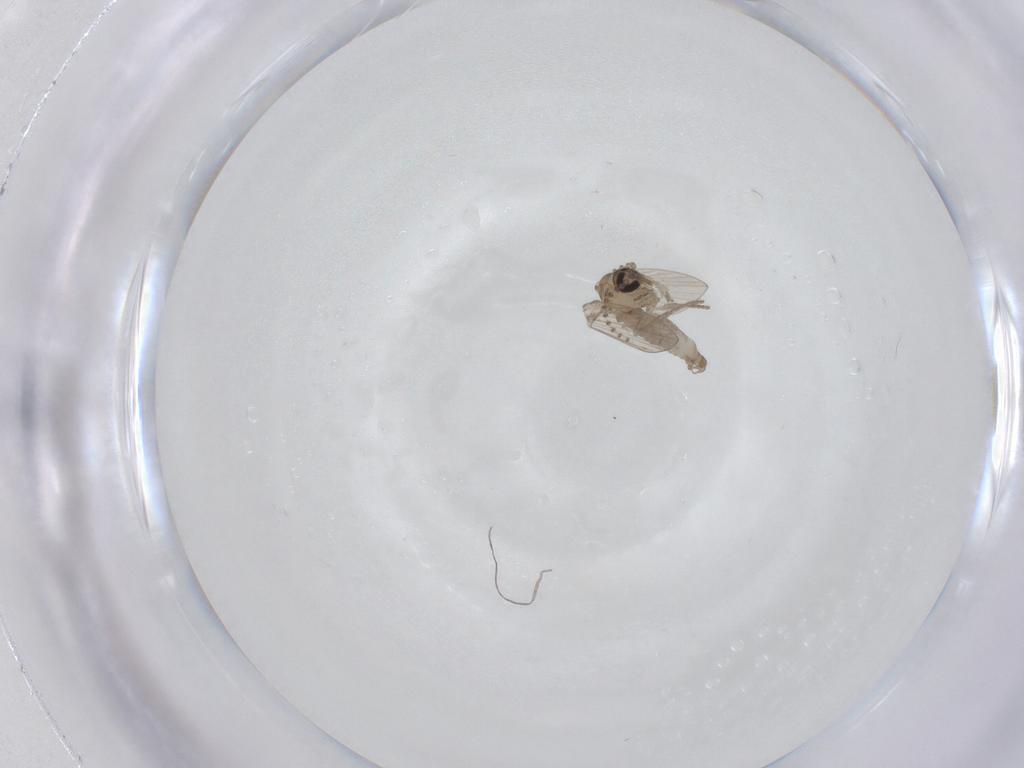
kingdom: Animalia
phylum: Arthropoda
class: Insecta
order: Diptera
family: Psychodidae
